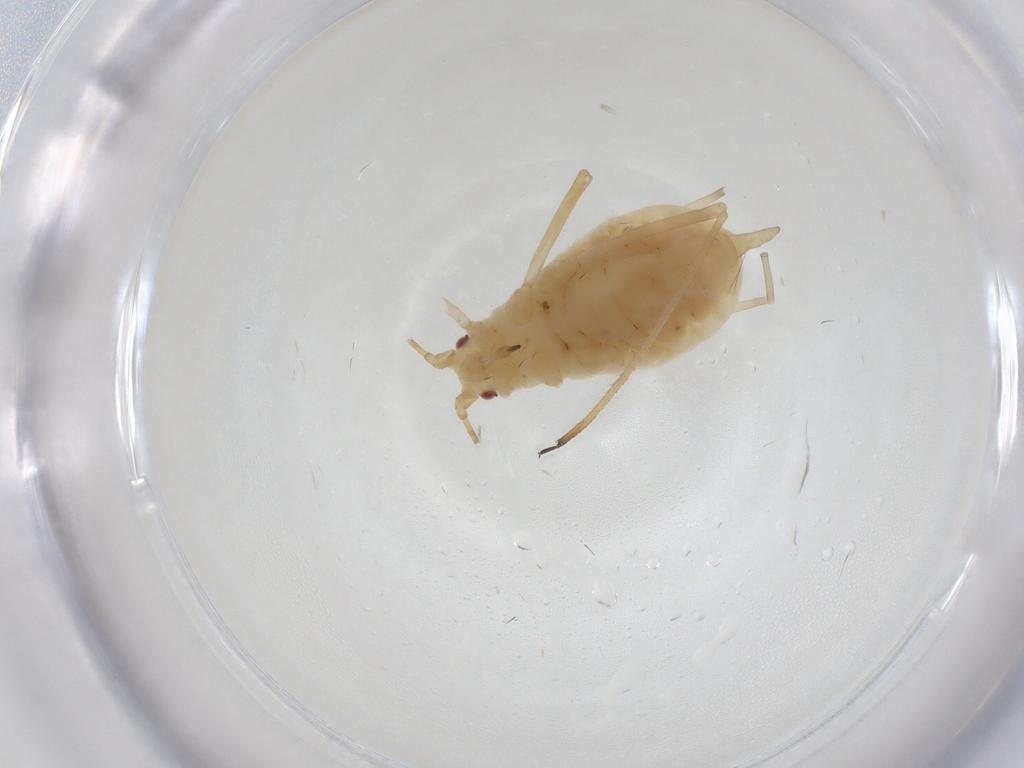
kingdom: Animalia
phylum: Arthropoda
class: Insecta
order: Hemiptera
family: Aphididae
